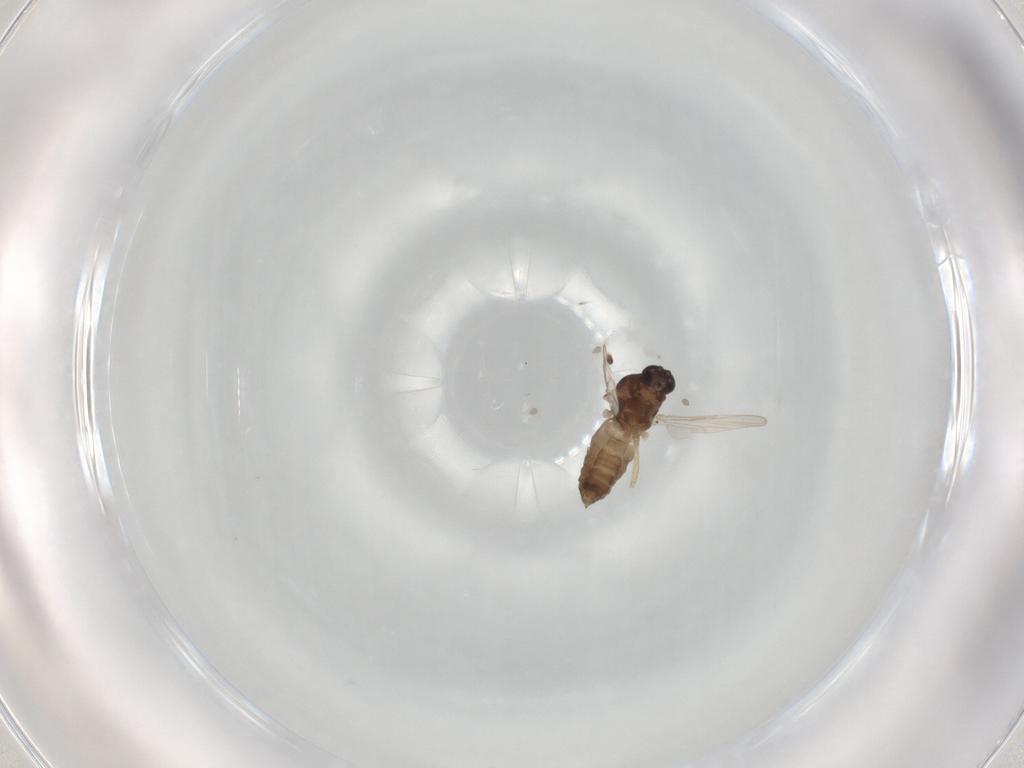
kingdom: Animalia
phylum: Arthropoda
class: Insecta
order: Diptera
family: Ceratopogonidae
